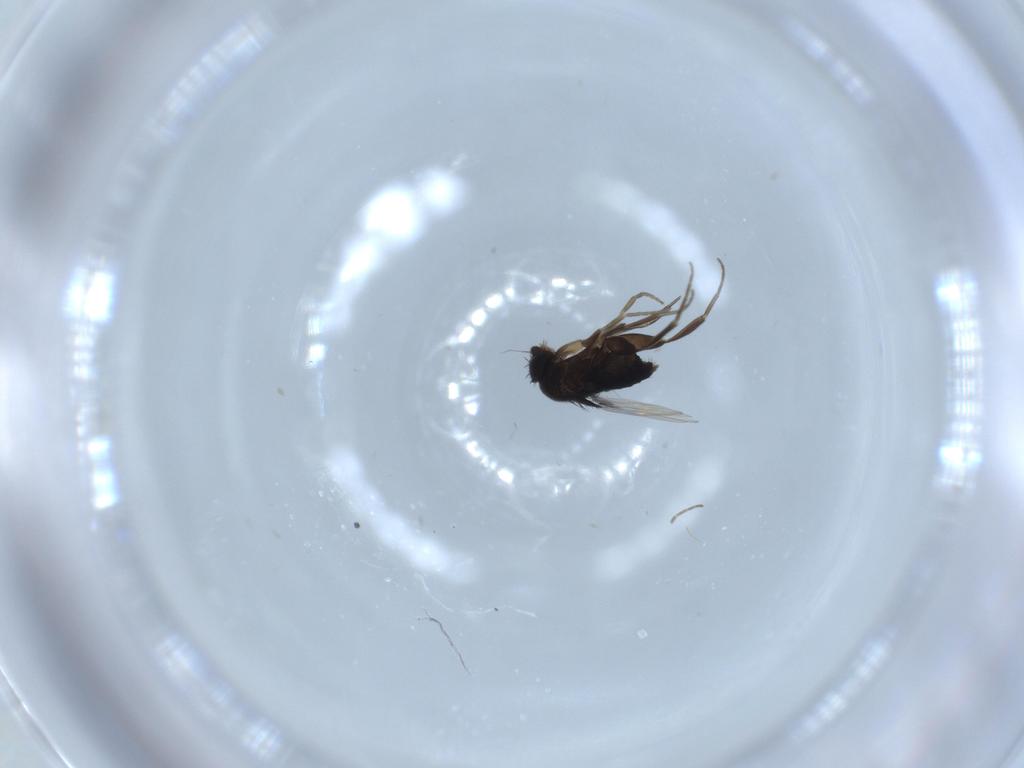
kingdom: Animalia
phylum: Arthropoda
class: Insecta
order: Diptera
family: Phoridae
